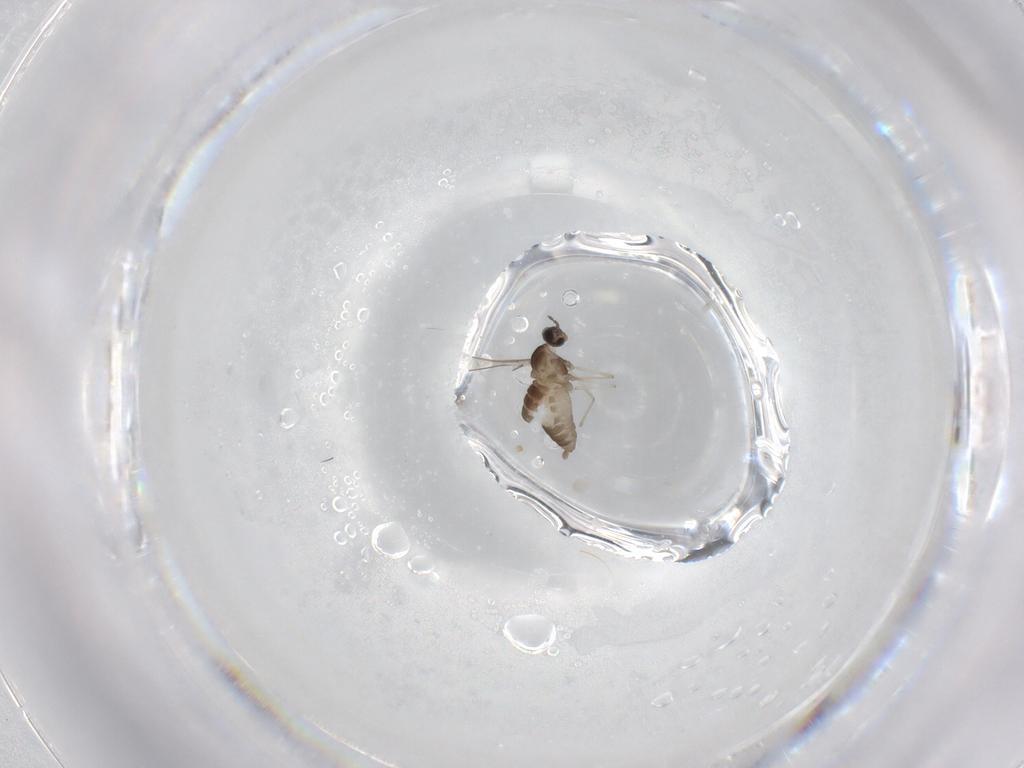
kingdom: Animalia
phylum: Arthropoda
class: Insecta
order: Diptera
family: Cecidomyiidae
